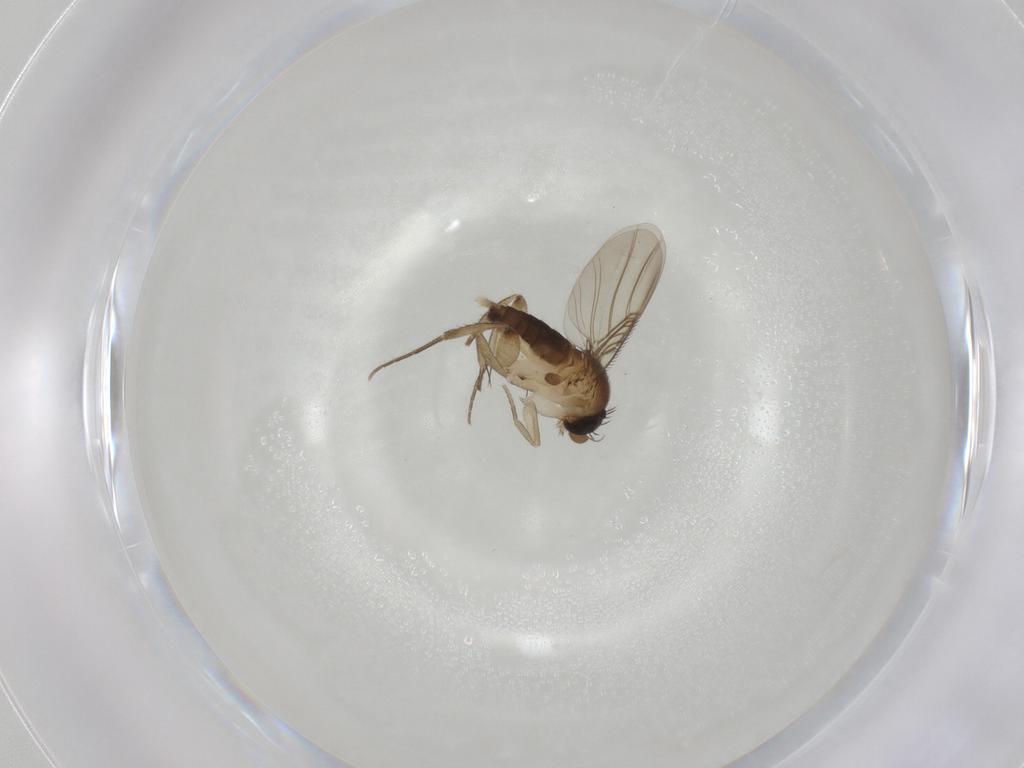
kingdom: Animalia
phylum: Arthropoda
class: Insecta
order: Diptera
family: Phoridae
